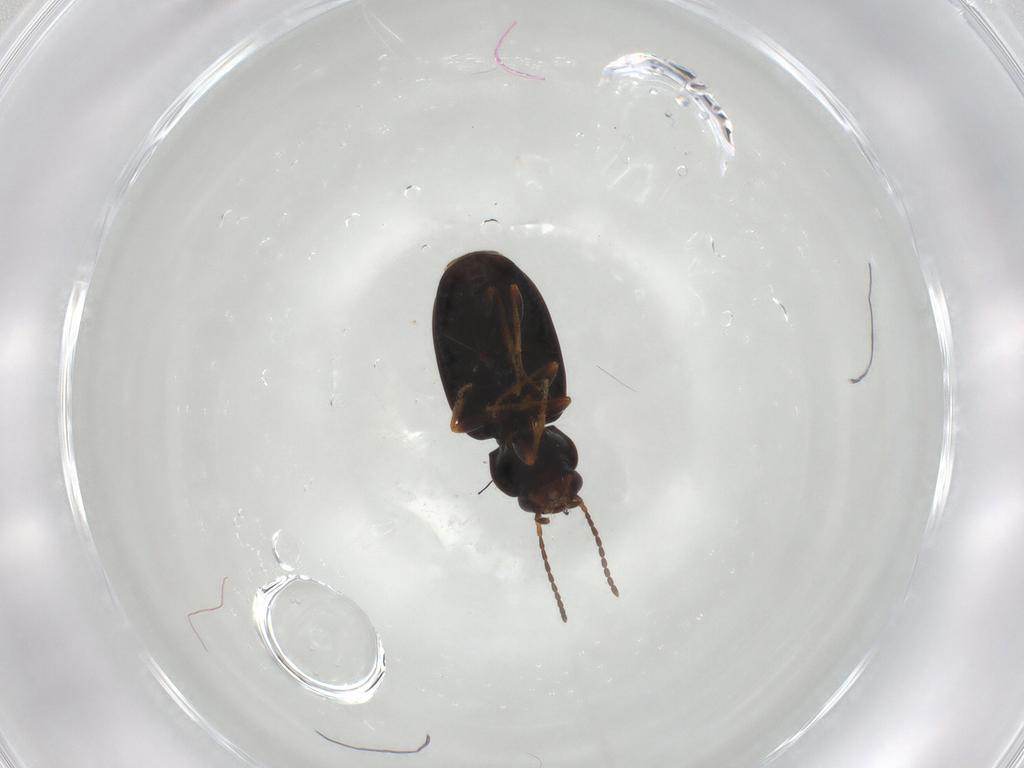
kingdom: Animalia
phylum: Arthropoda
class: Insecta
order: Coleoptera
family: Carabidae
